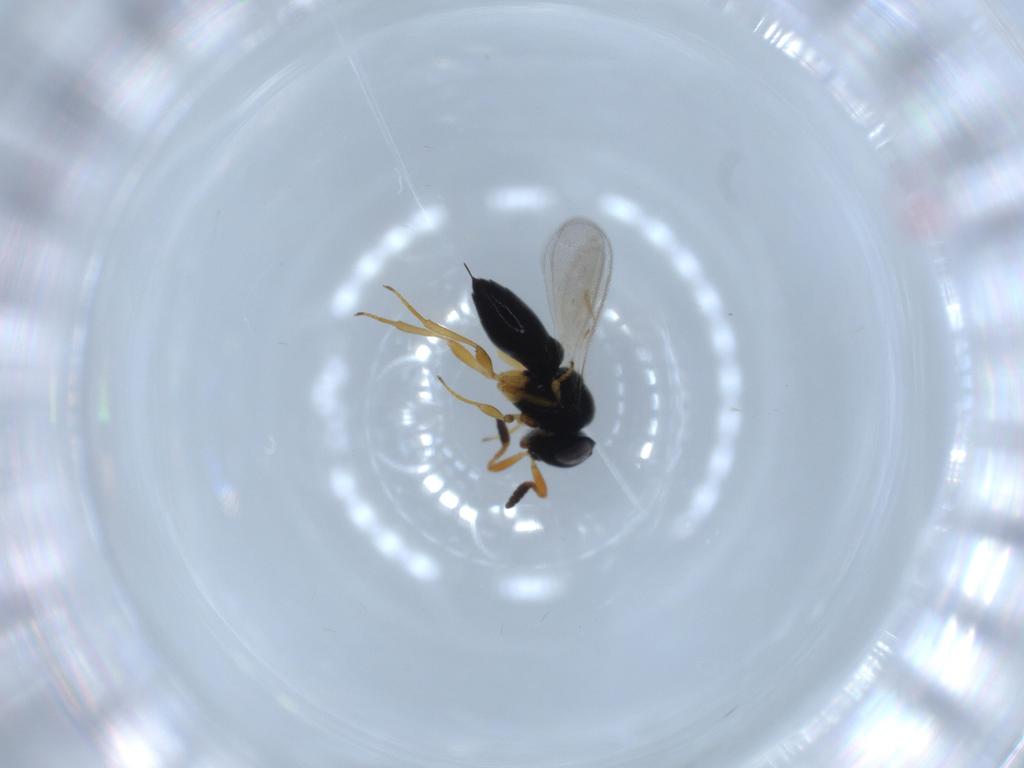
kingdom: Animalia
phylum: Arthropoda
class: Insecta
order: Hymenoptera
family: Scelionidae
